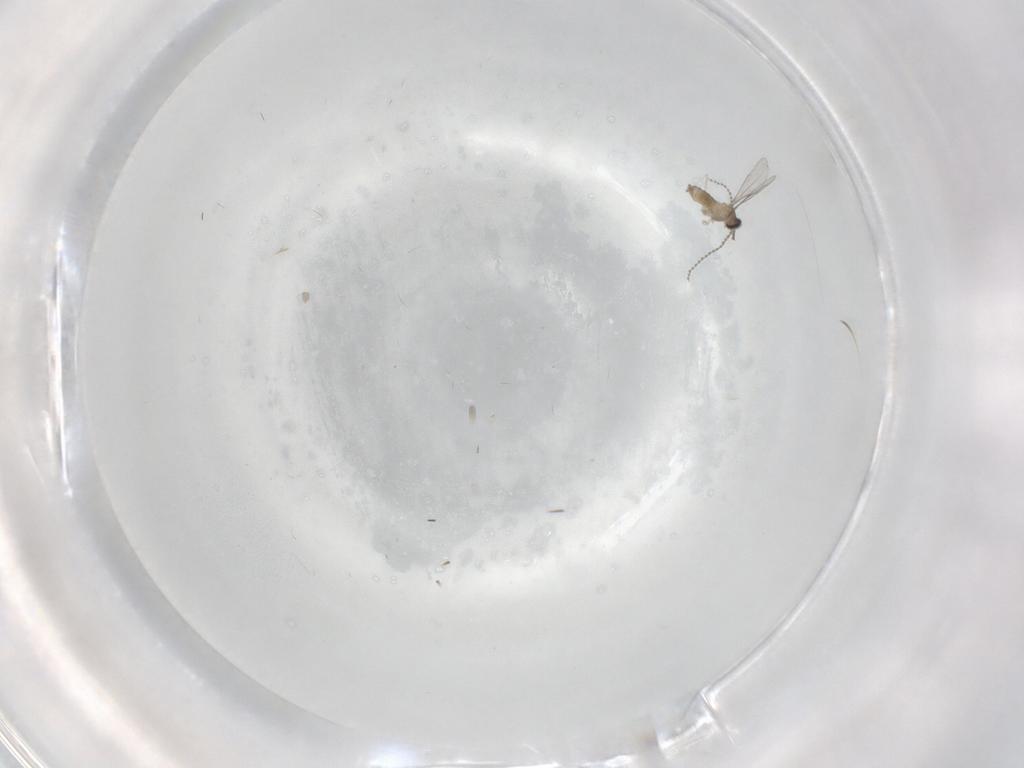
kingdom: Animalia
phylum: Arthropoda
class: Insecta
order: Diptera
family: Cecidomyiidae
